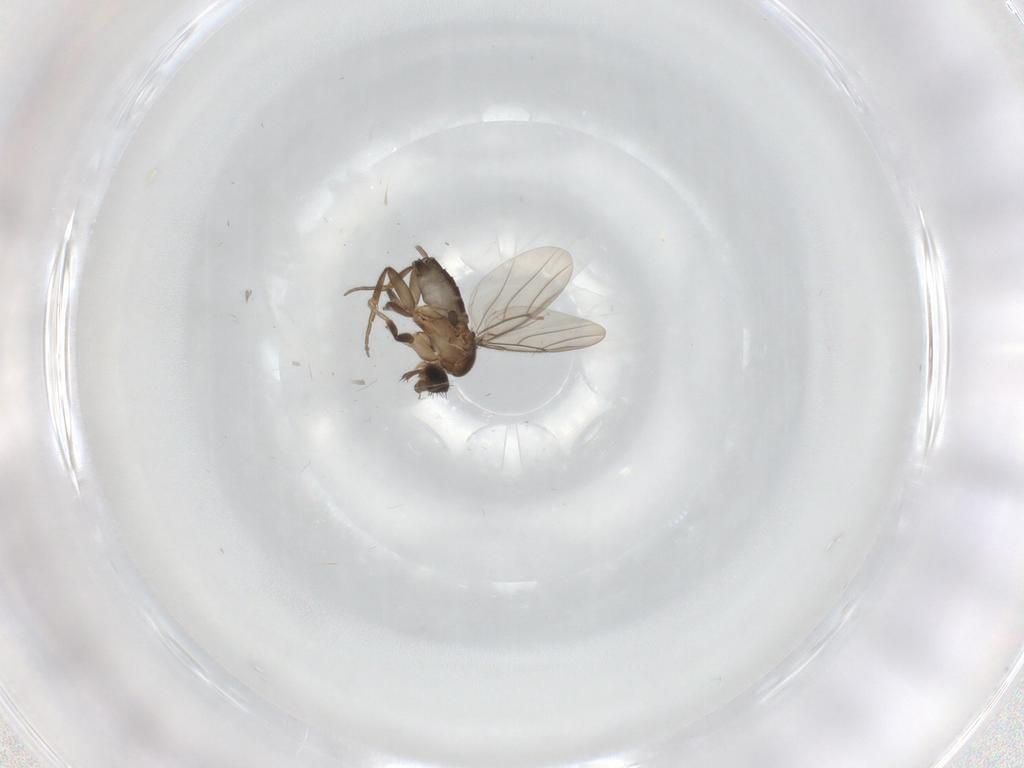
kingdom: Animalia
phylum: Arthropoda
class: Insecta
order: Diptera
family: Phoridae
